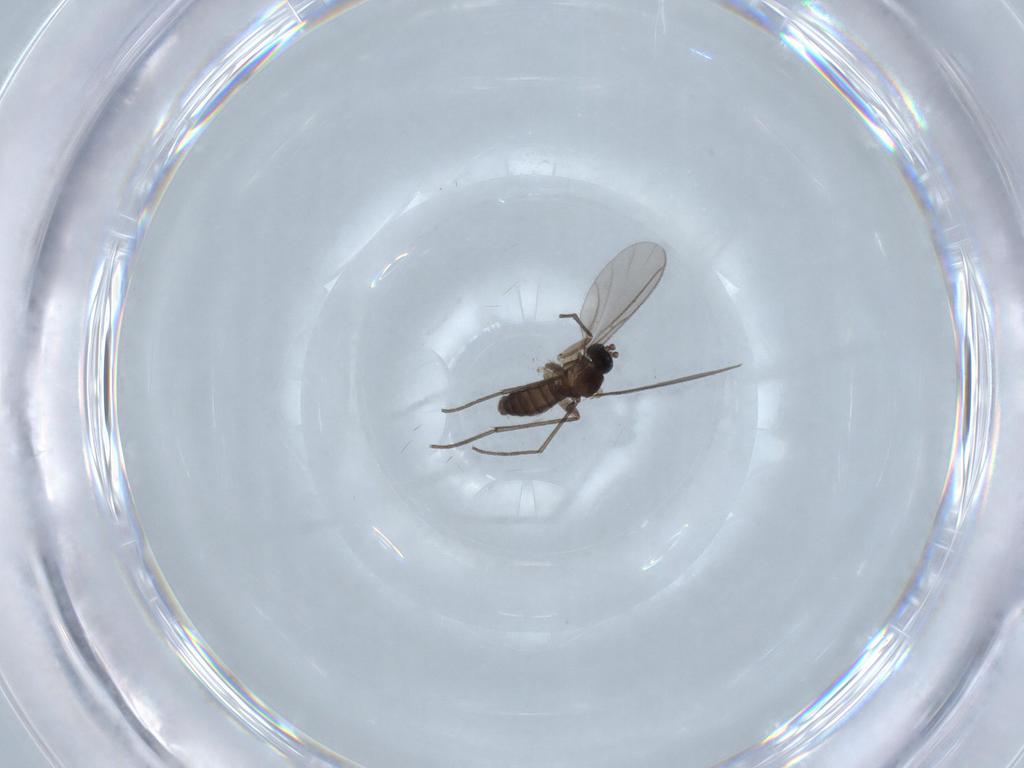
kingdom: Animalia
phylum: Arthropoda
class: Insecta
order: Diptera
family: Sciaridae
